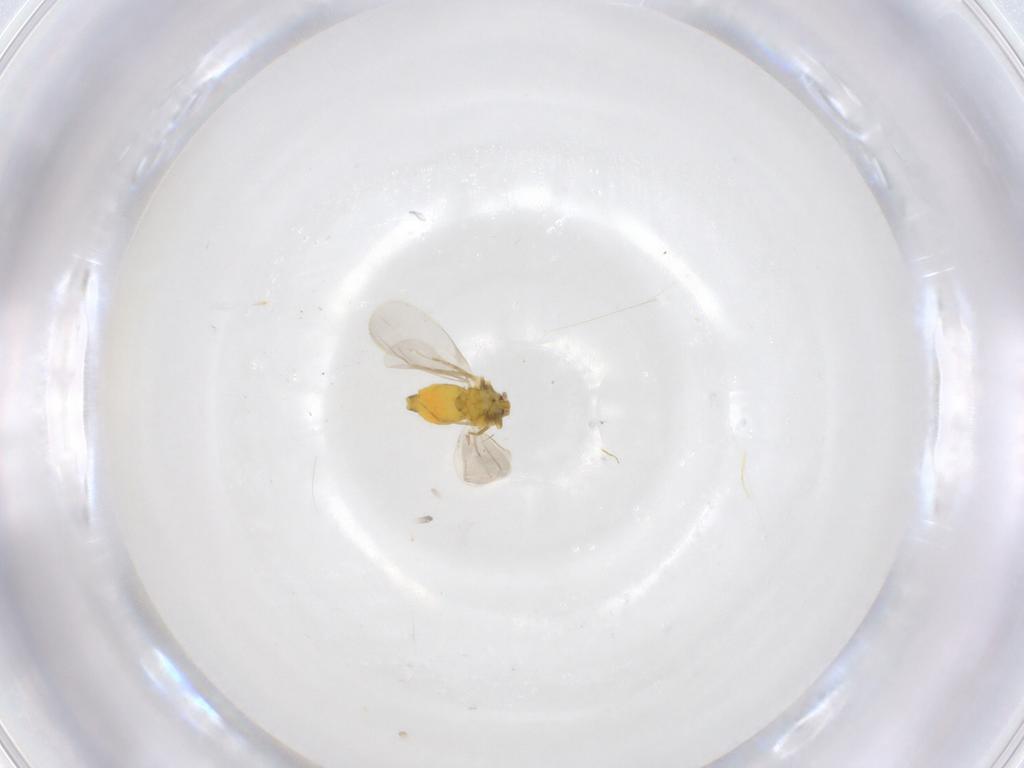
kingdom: Animalia
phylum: Arthropoda
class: Insecta
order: Hemiptera
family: Aleyrodidae
